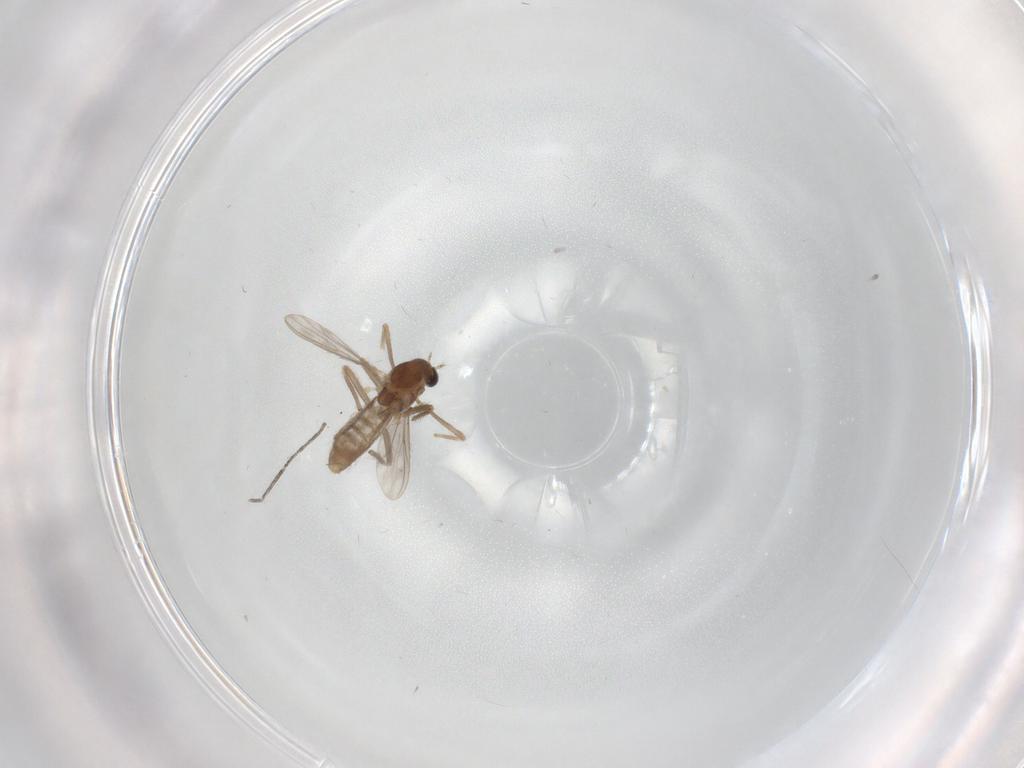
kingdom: Animalia
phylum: Arthropoda
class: Insecta
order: Diptera
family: Chironomidae
